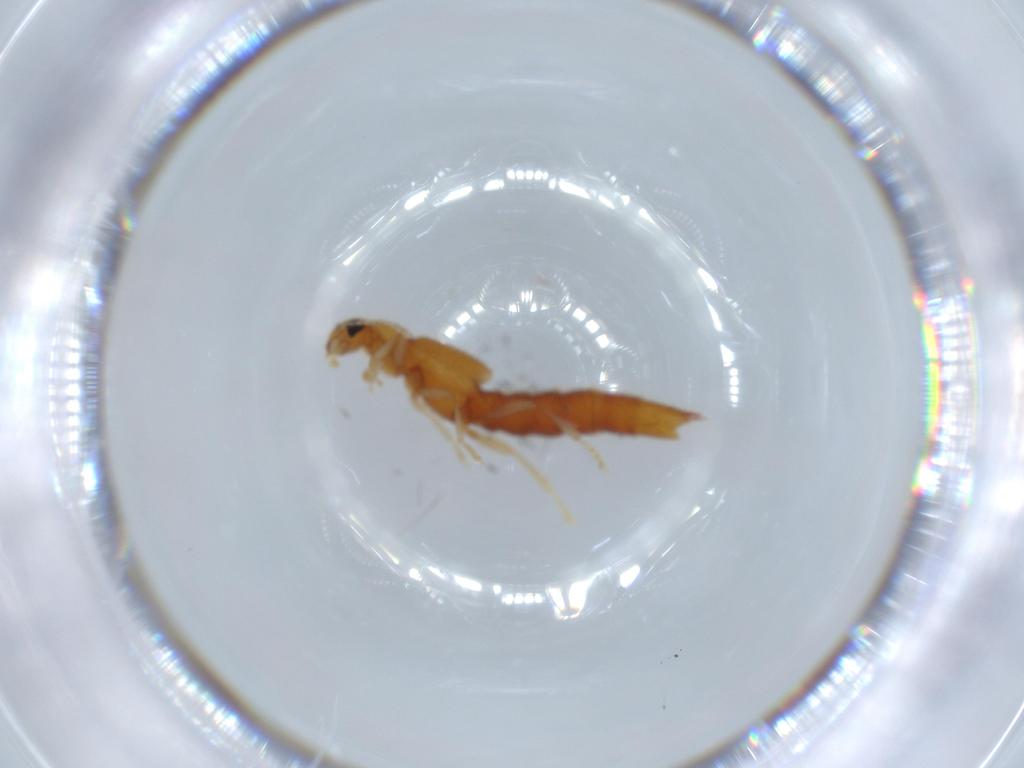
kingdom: Animalia
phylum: Arthropoda
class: Insecta
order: Coleoptera
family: Staphylinidae
